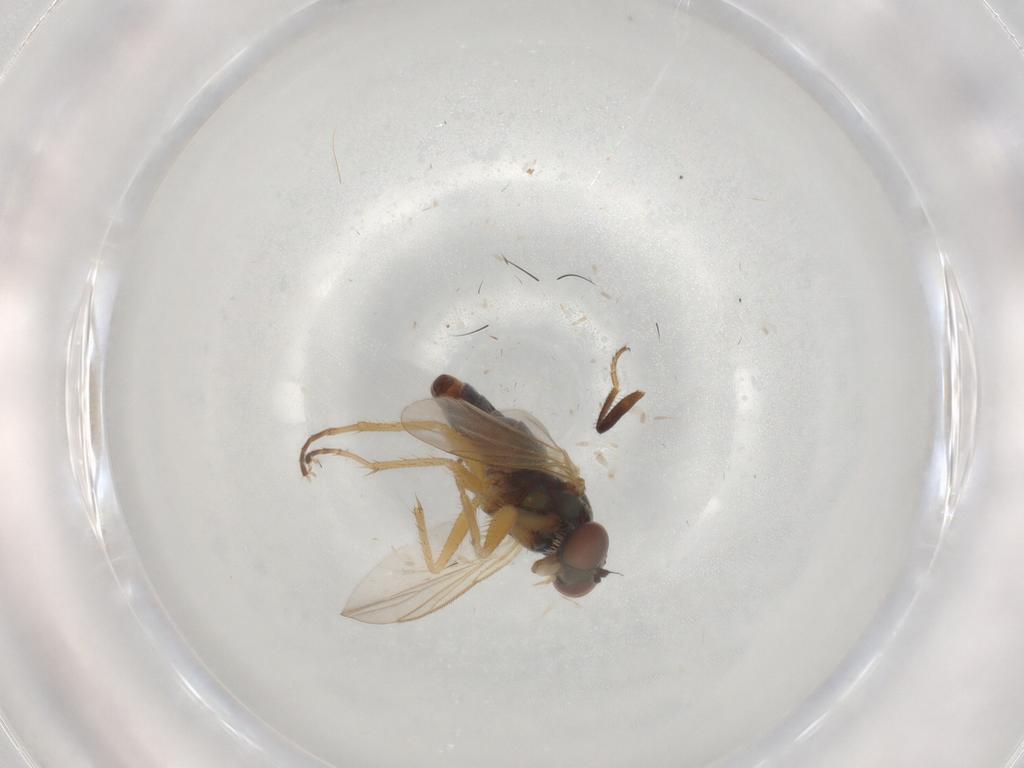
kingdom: Animalia
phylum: Arthropoda
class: Insecta
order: Diptera
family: Dolichopodidae
